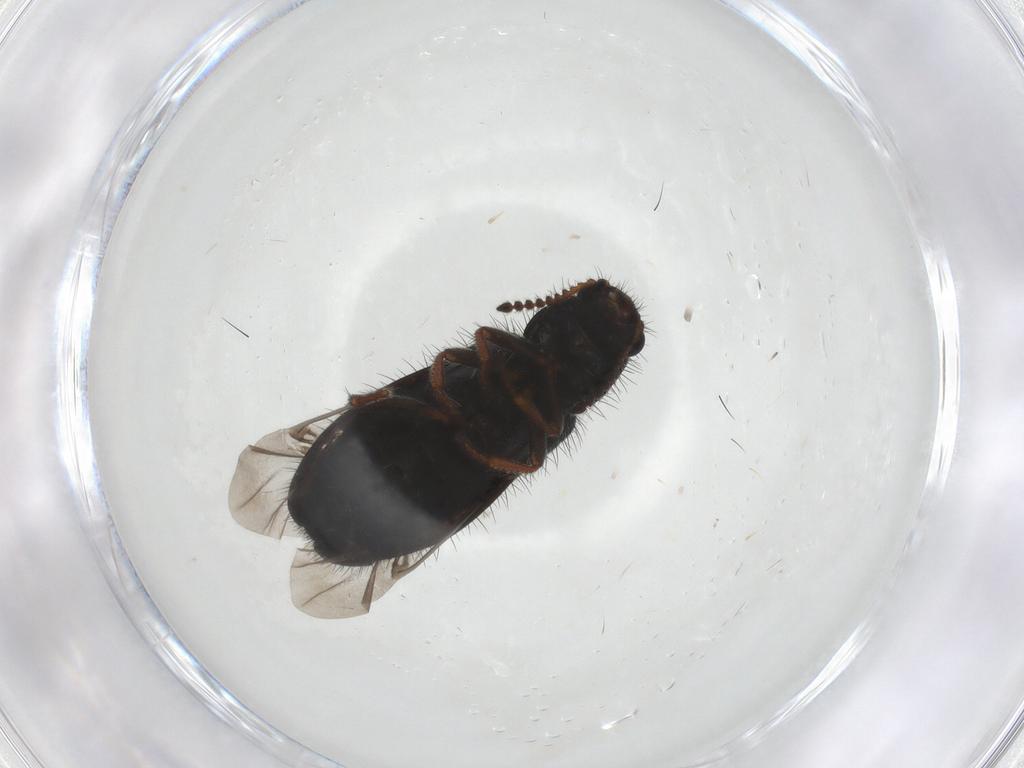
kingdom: Animalia
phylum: Arthropoda
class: Insecta
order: Coleoptera
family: Melyridae
